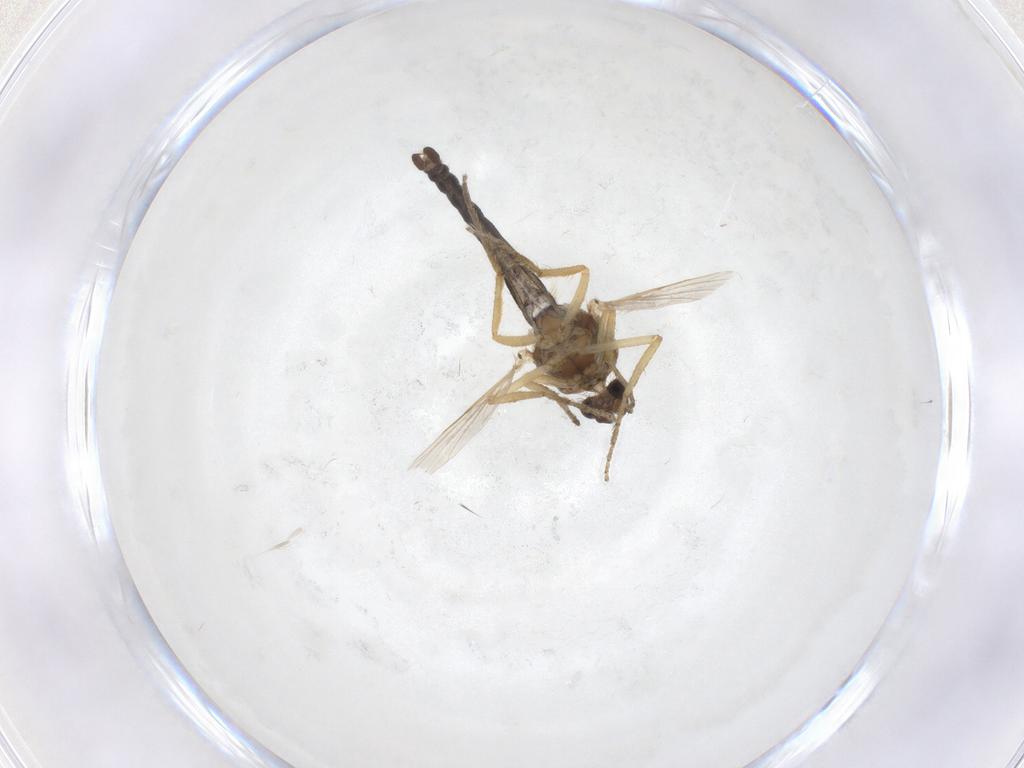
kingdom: Animalia
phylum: Arthropoda
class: Insecta
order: Diptera
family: Ceratopogonidae
